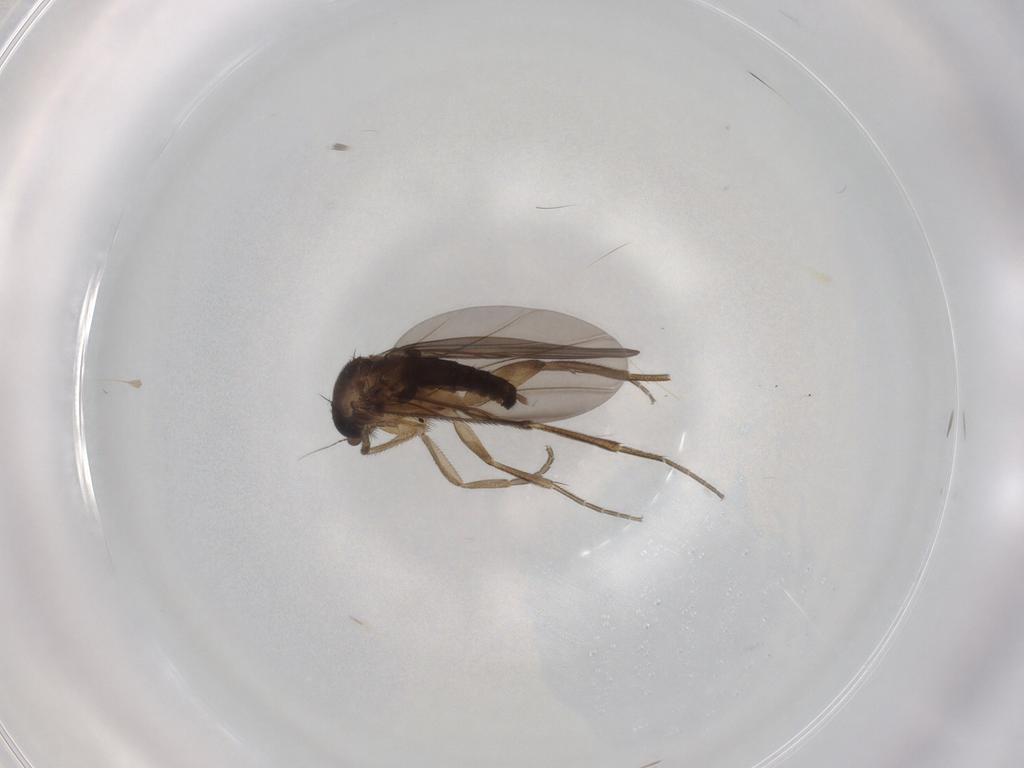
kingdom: Animalia
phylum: Arthropoda
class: Insecta
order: Diptera
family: Phoridae
